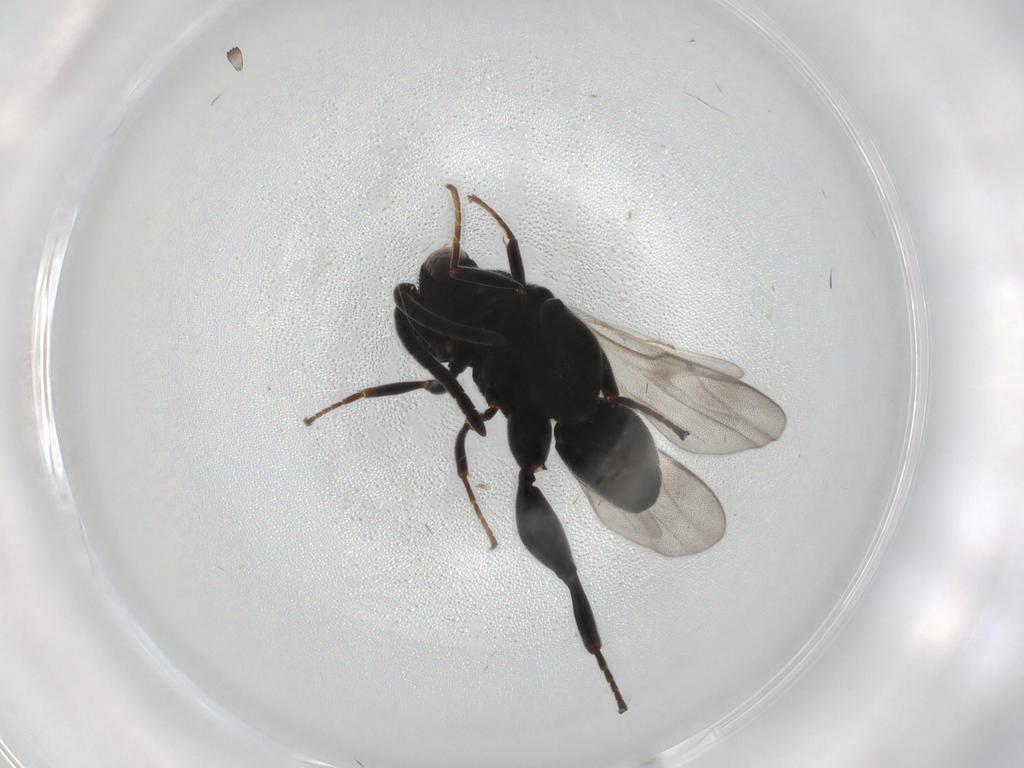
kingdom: Animalia
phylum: Arthropoda
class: Insecta
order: Hymenoptera
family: Chalcididae
